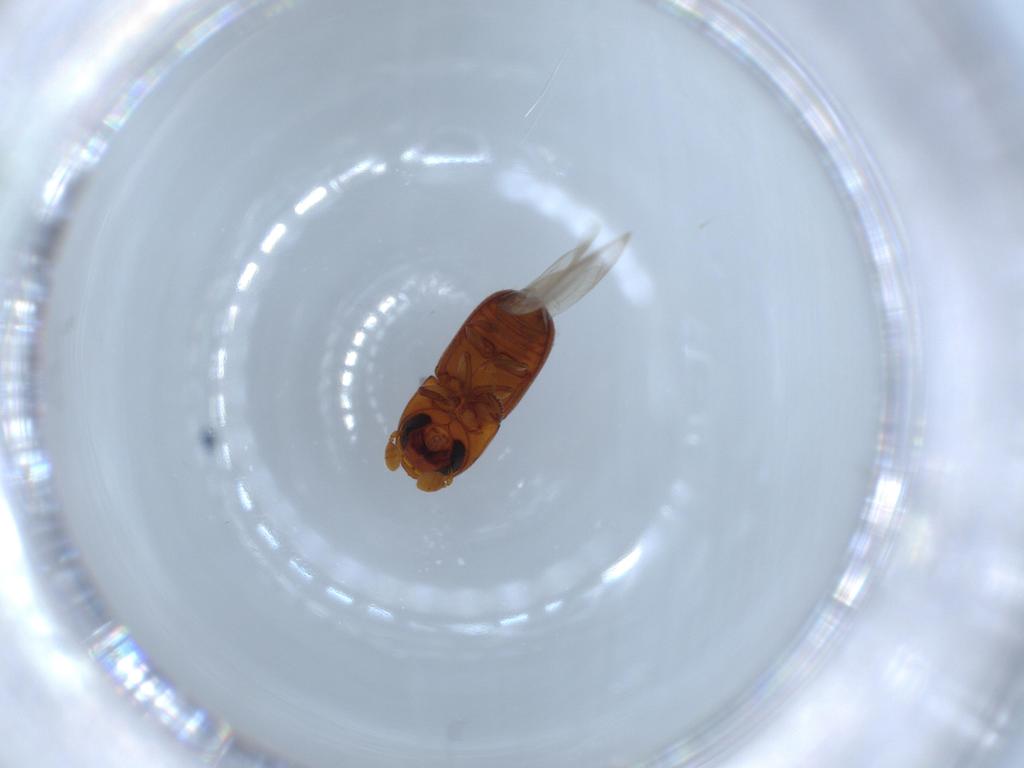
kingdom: Animalia
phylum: Arthropoda
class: Insecta
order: Coleoptera
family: Curculionidae
